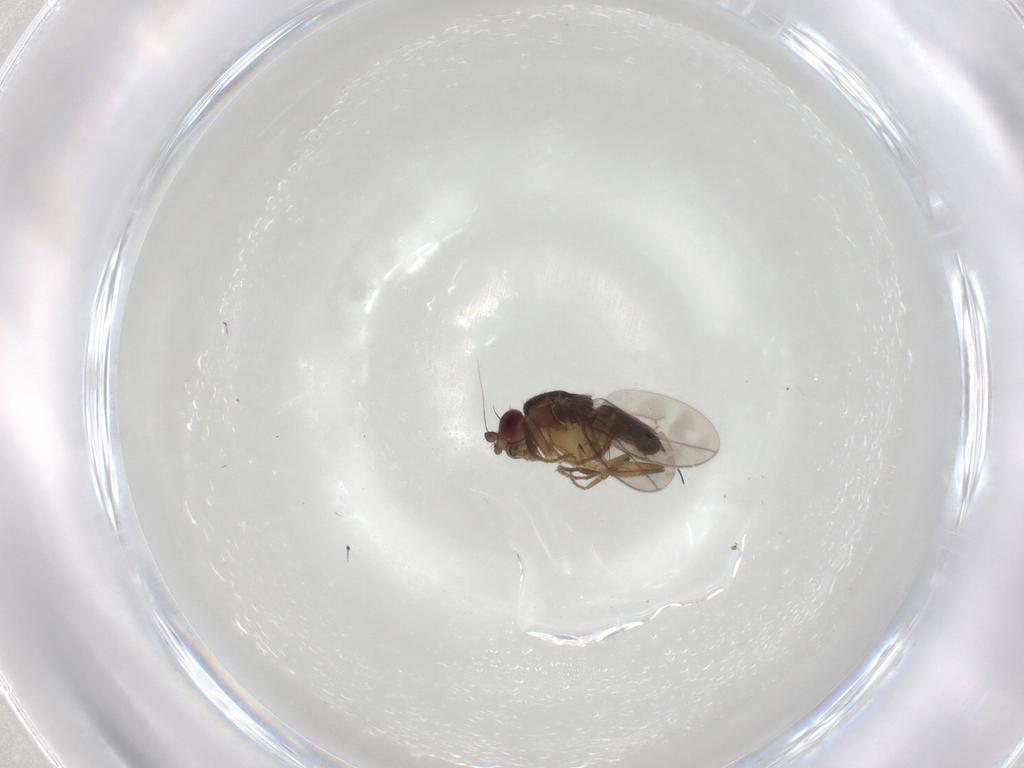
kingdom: Animalia
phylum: Arthropoda
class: Insecta
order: Diptera
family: Sphaeroceridae
